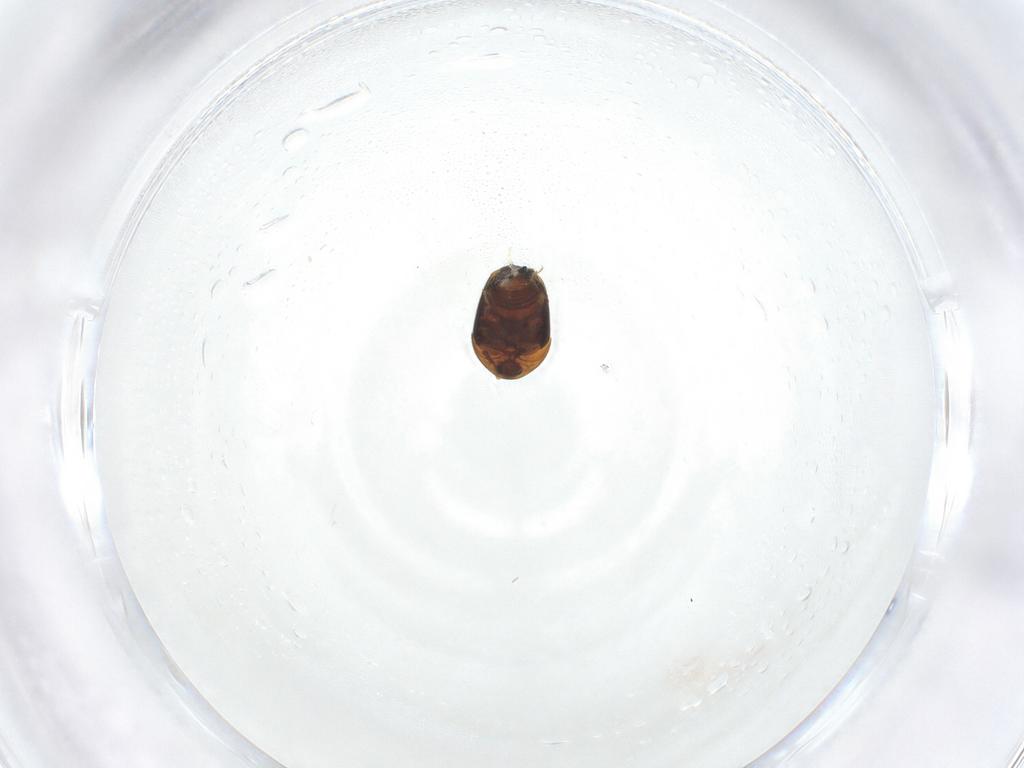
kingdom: Animalia
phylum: Arthropoda
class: Insecta
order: Coleoptera
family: Corylophidae
